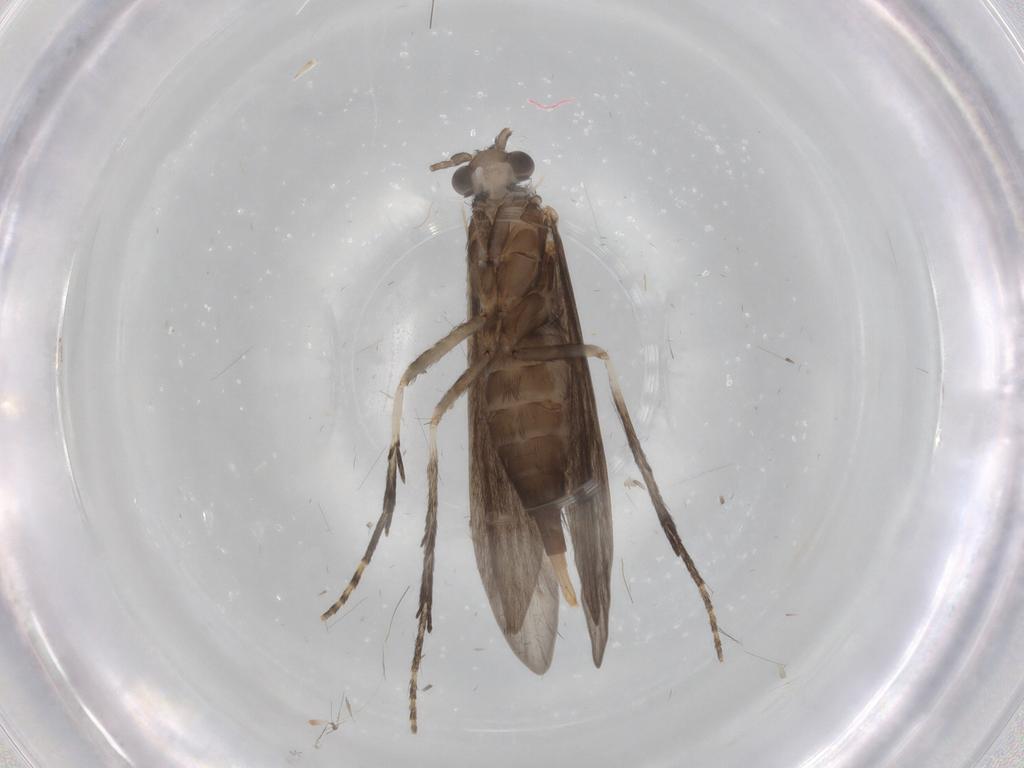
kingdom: Animalia
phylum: Arthropoda
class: Insecta
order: Trichoptera
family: Xiphocentronidae
